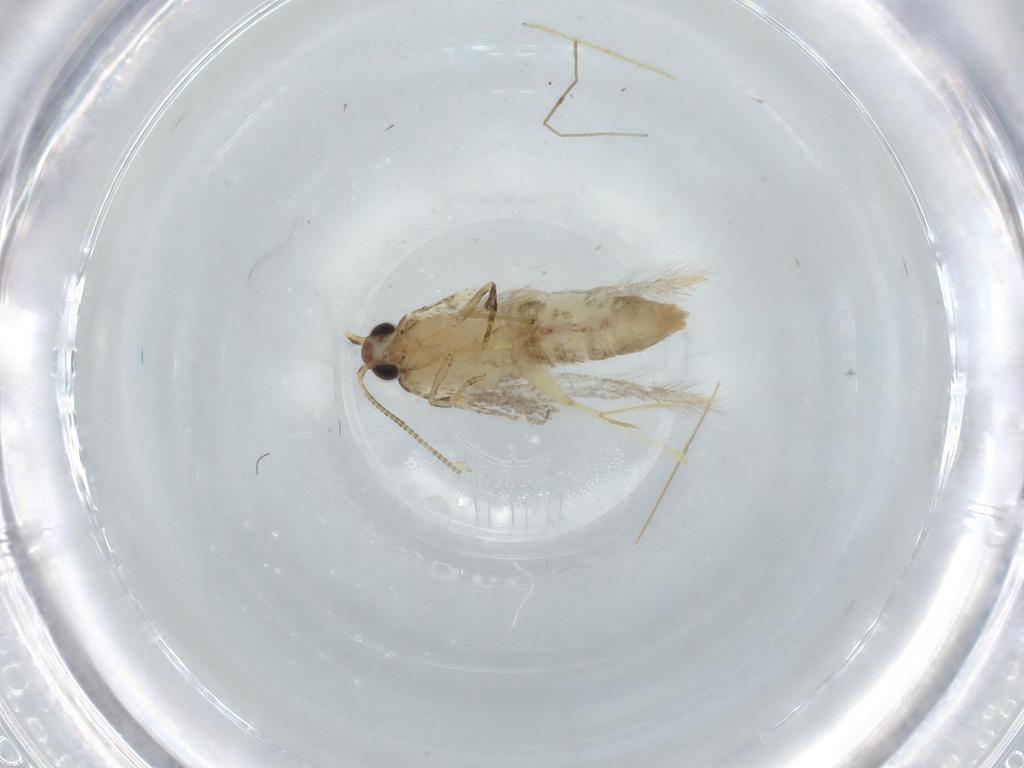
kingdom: Animalia
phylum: Arthropoda
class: Insecta
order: Lepidoptera
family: Tineidae
